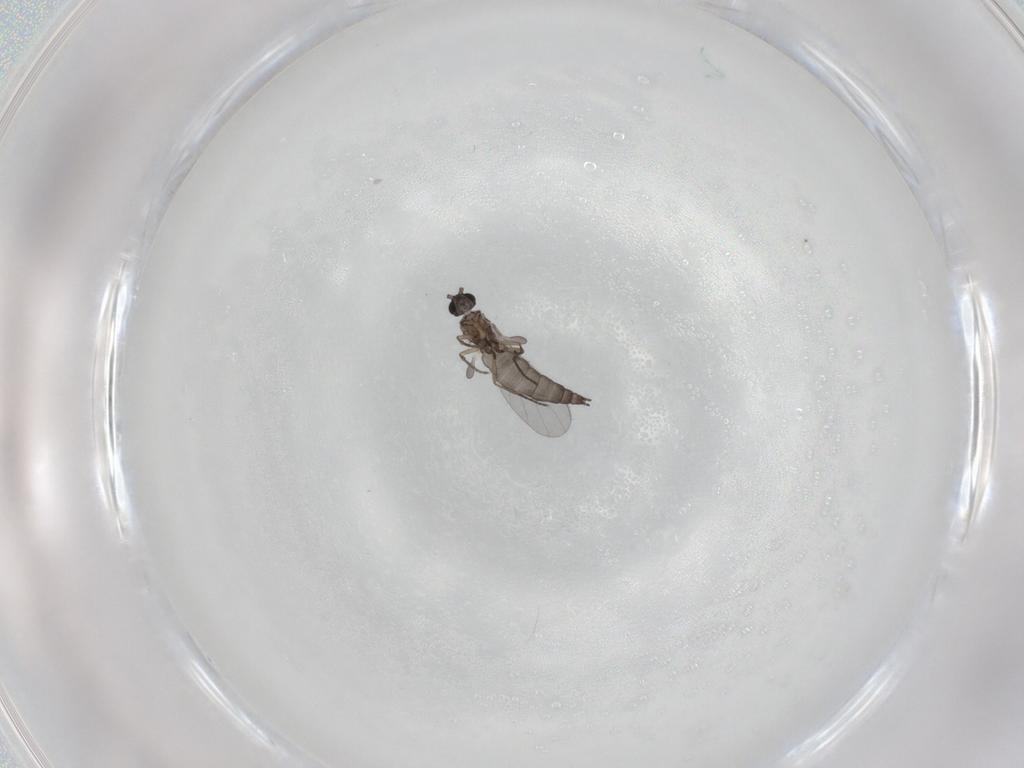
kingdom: Animalia
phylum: Arthropoda
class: Insecta
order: Diptera
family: Sciaridae
